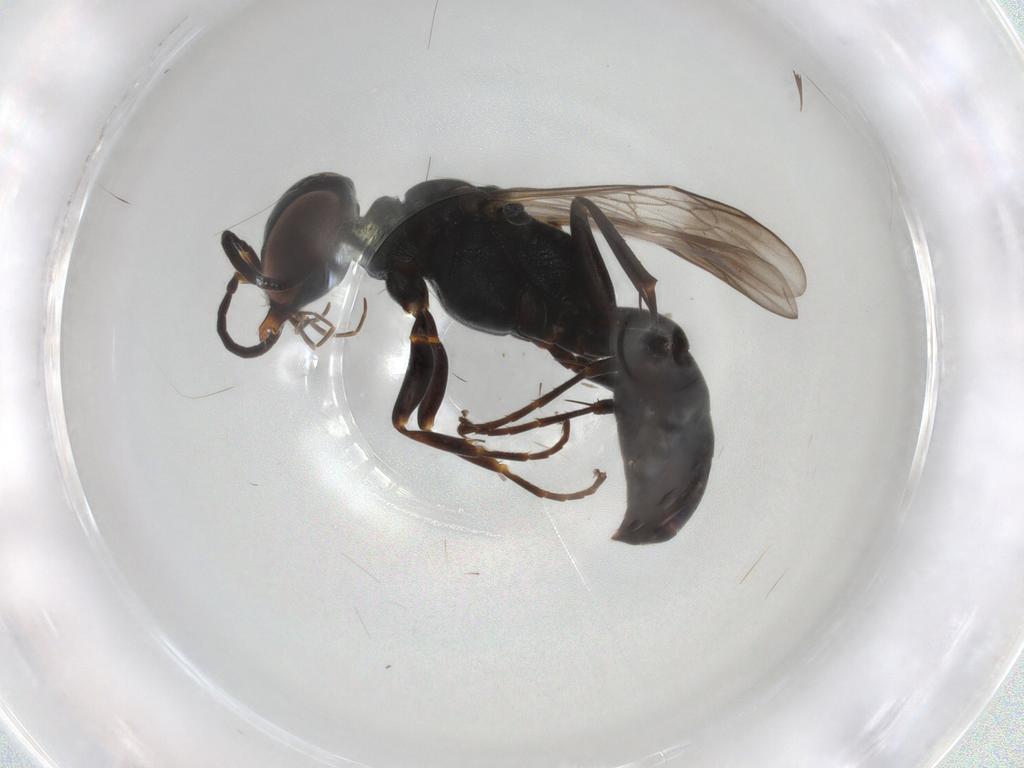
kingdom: Animalia
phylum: Arthropoda
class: Insecta
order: Hymenoptera
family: Crabronidae
